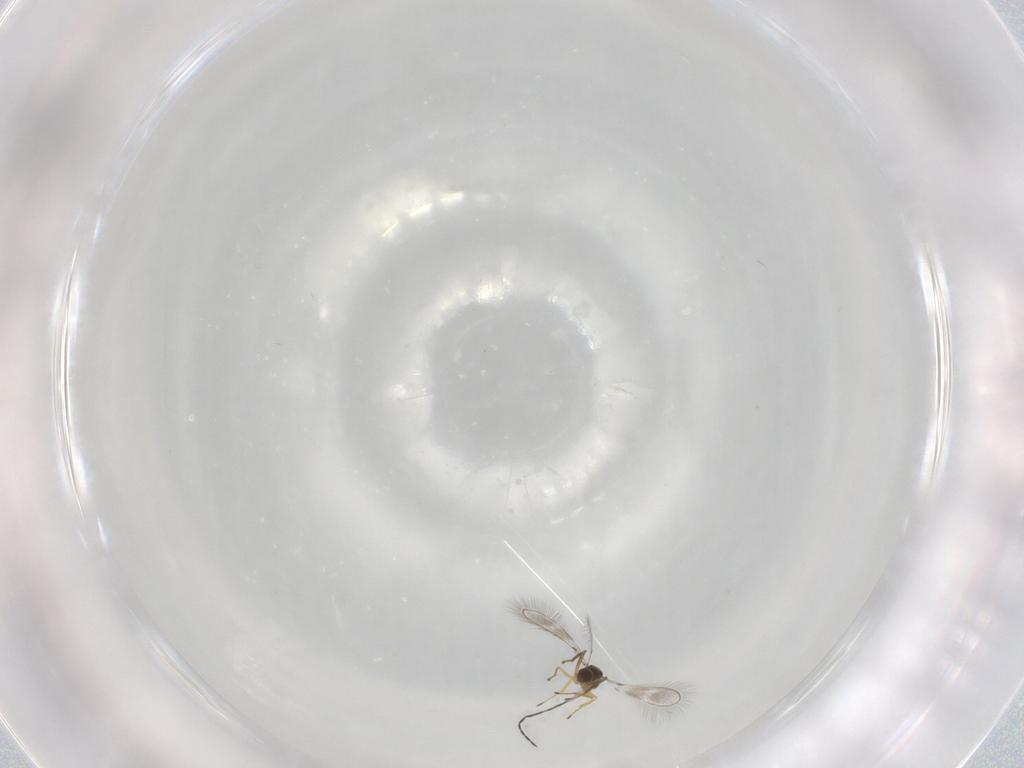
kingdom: Animalia
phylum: Arthropoda
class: Insecta
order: Hymenoptera
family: Mymaridae
